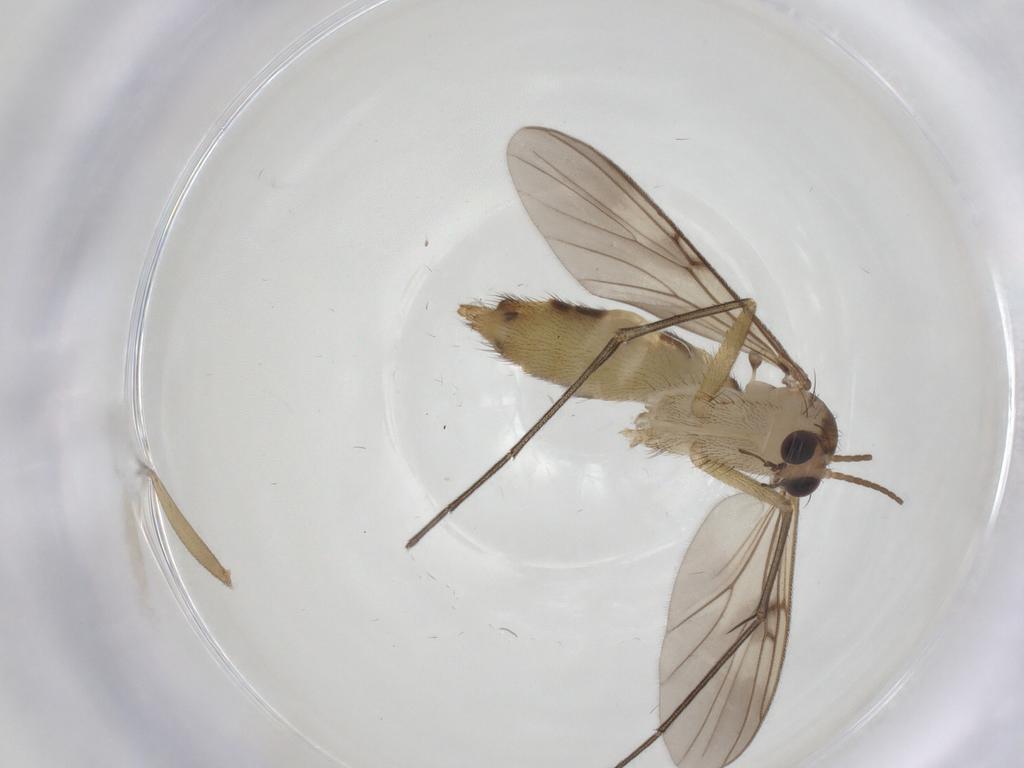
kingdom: Animalia
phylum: Arthropoda
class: Insecta
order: Diptera
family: Mycetophilidae
